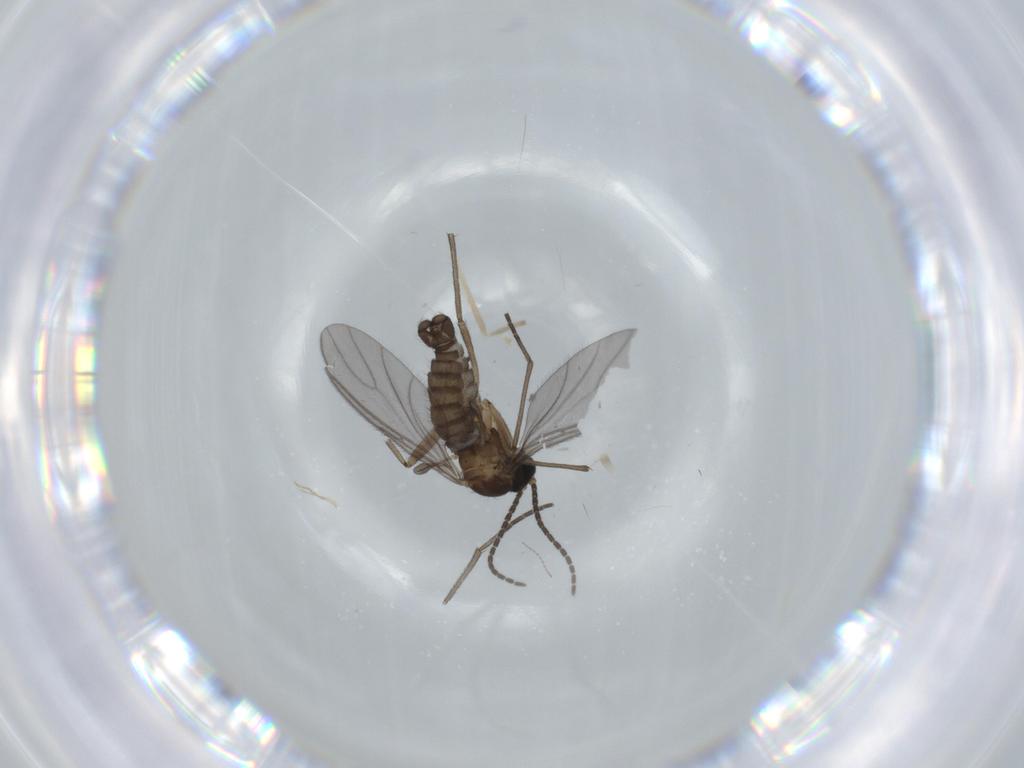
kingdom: Animalia
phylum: Arthropoda
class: Insecta
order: Diptera
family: Sciaridae
